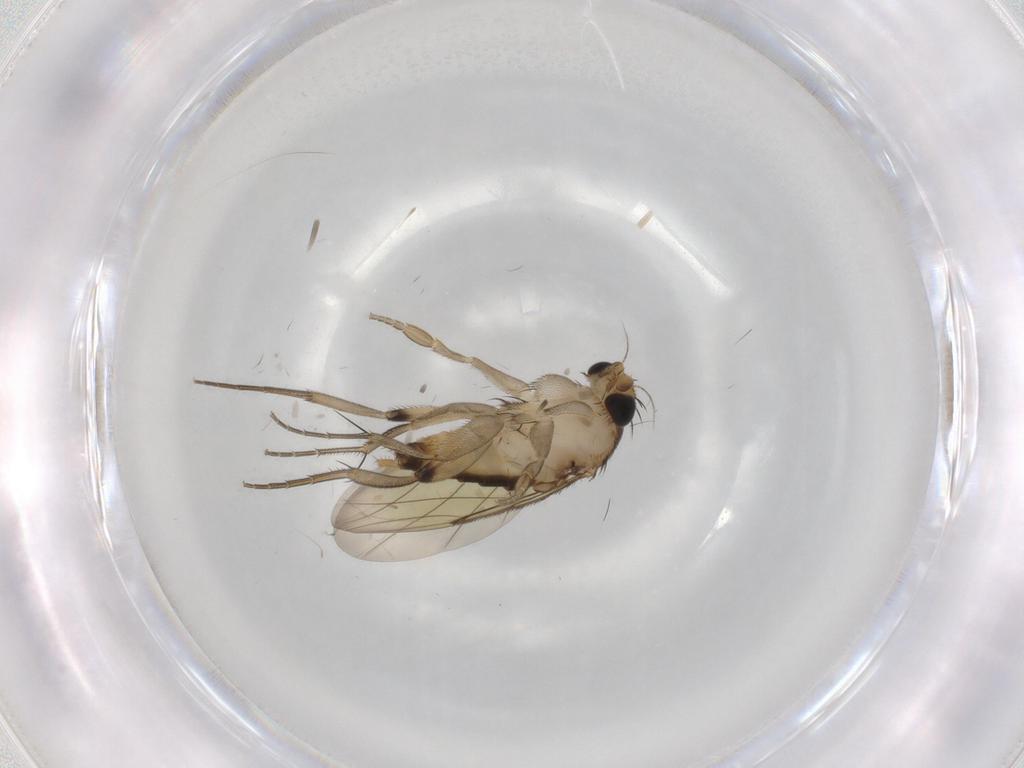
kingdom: Animalia
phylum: Arthropoda
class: Insecta
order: Diptera
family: Phoridae
